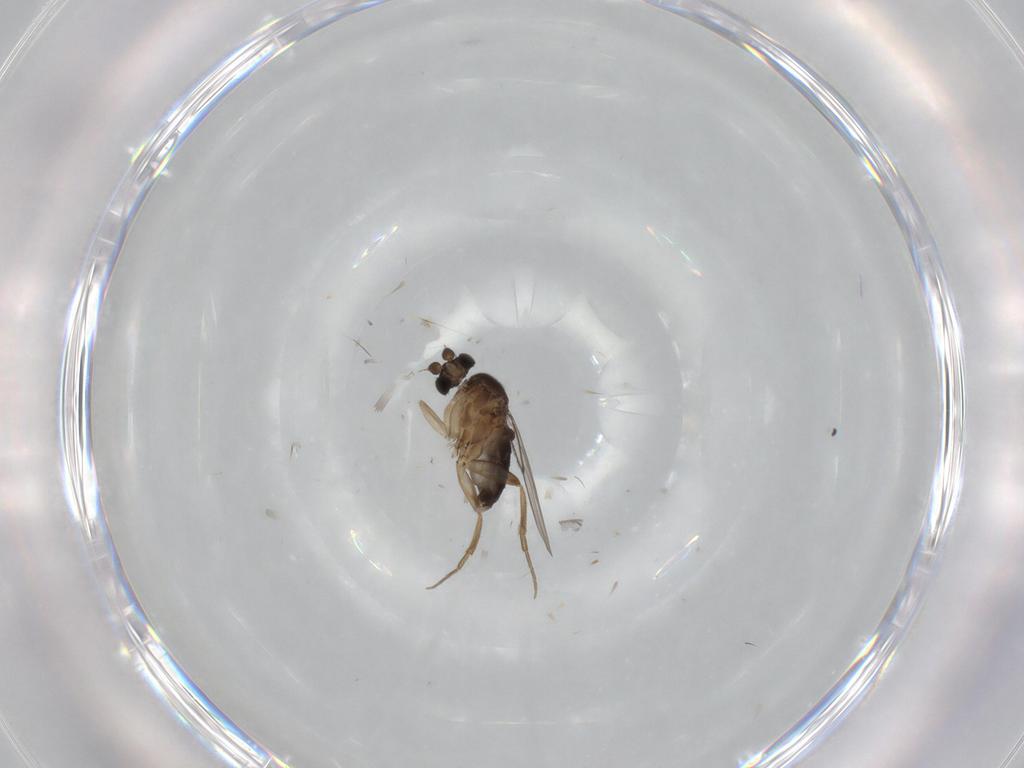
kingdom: Animalia
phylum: Arthropoda
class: Insecta
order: Diptera
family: Phoridae
